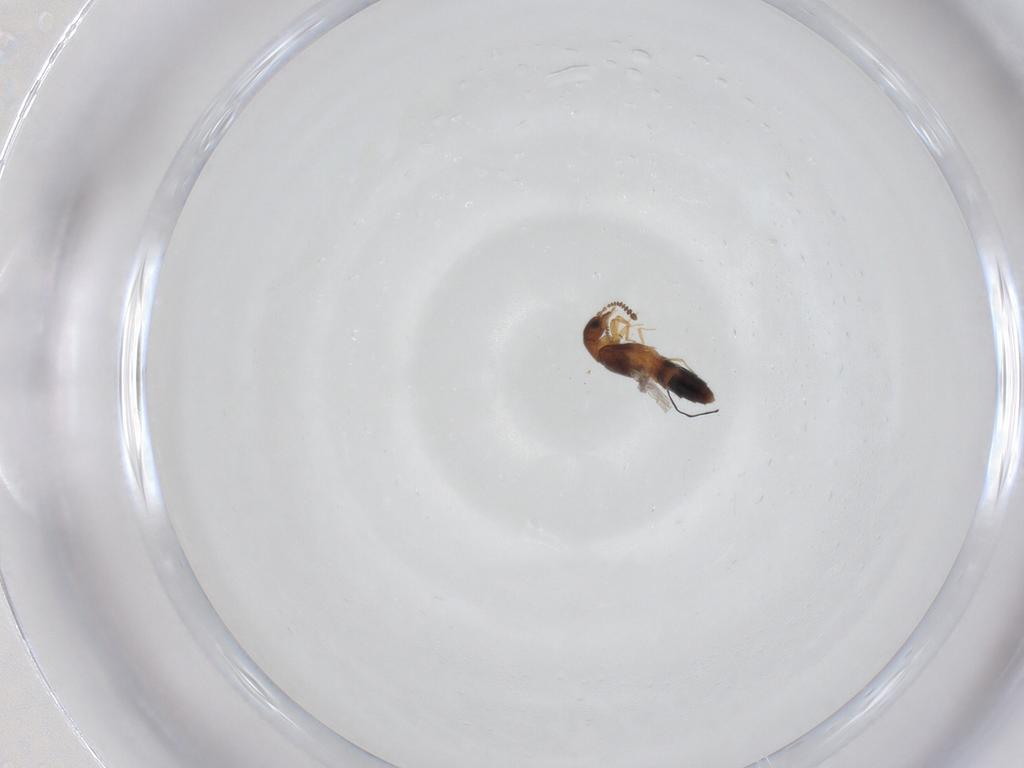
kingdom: Animalia
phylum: Arthropoda
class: Insecta
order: Coleoptera
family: Staphylinidae
